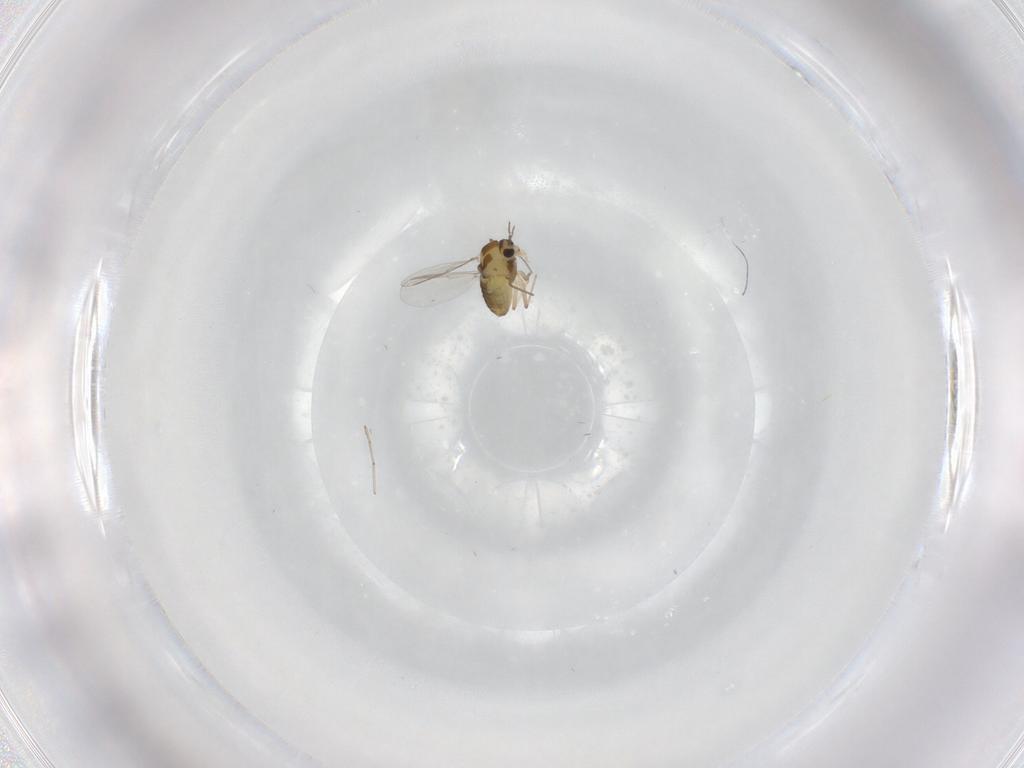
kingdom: Animalia
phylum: Arthropoda
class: Insecta
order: Diptera
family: Chironomidae
